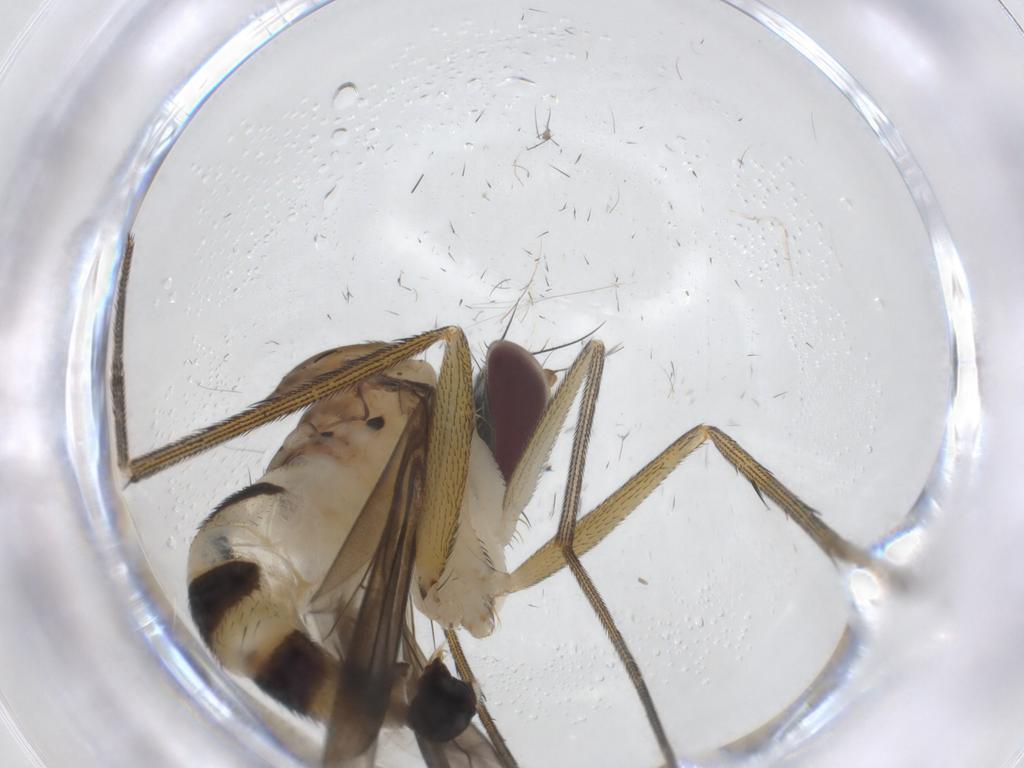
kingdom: Animalia
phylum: Arthropoda
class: Insecta
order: Diptera
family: Dolichopodidae
